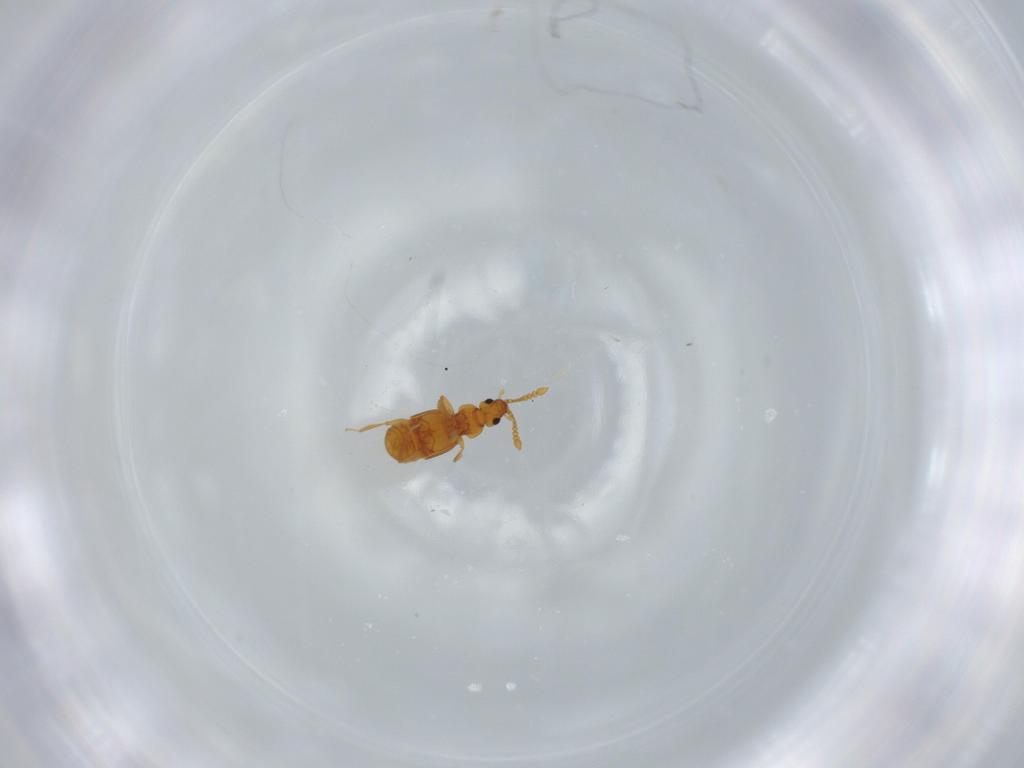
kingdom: Animalia
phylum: Arthropoda
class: Insecta
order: Coleoptera
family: Staphylinidae
